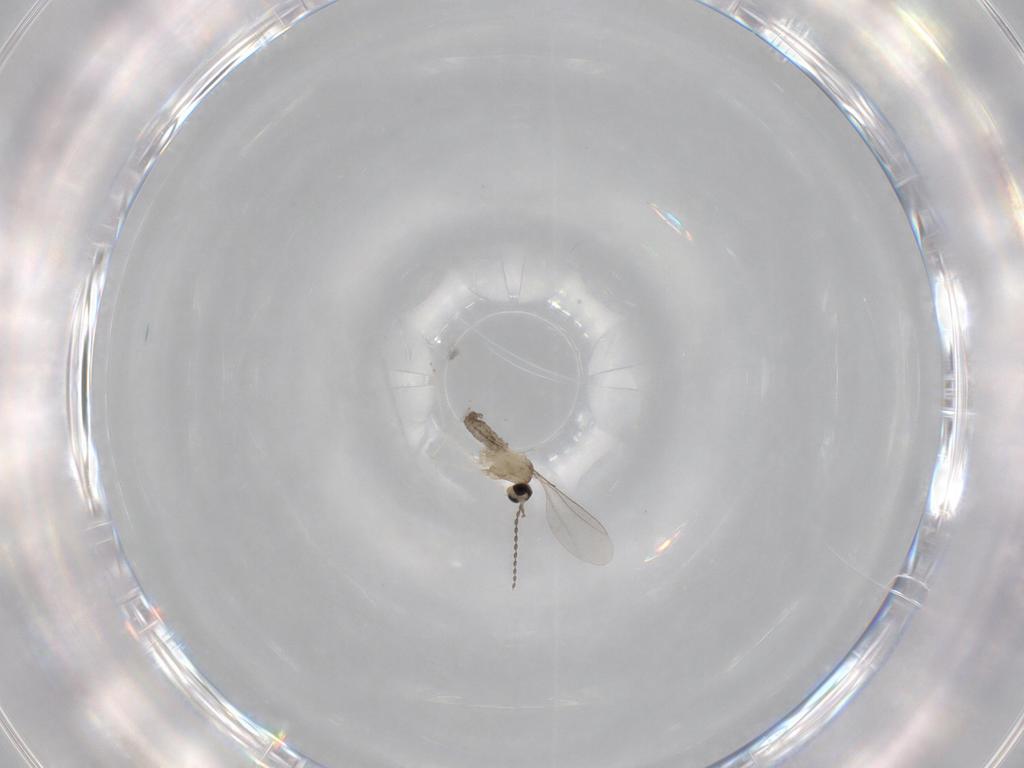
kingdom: Animalia
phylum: Arthropoda
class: Insecta
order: Diptera
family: Cecidomyiidae
